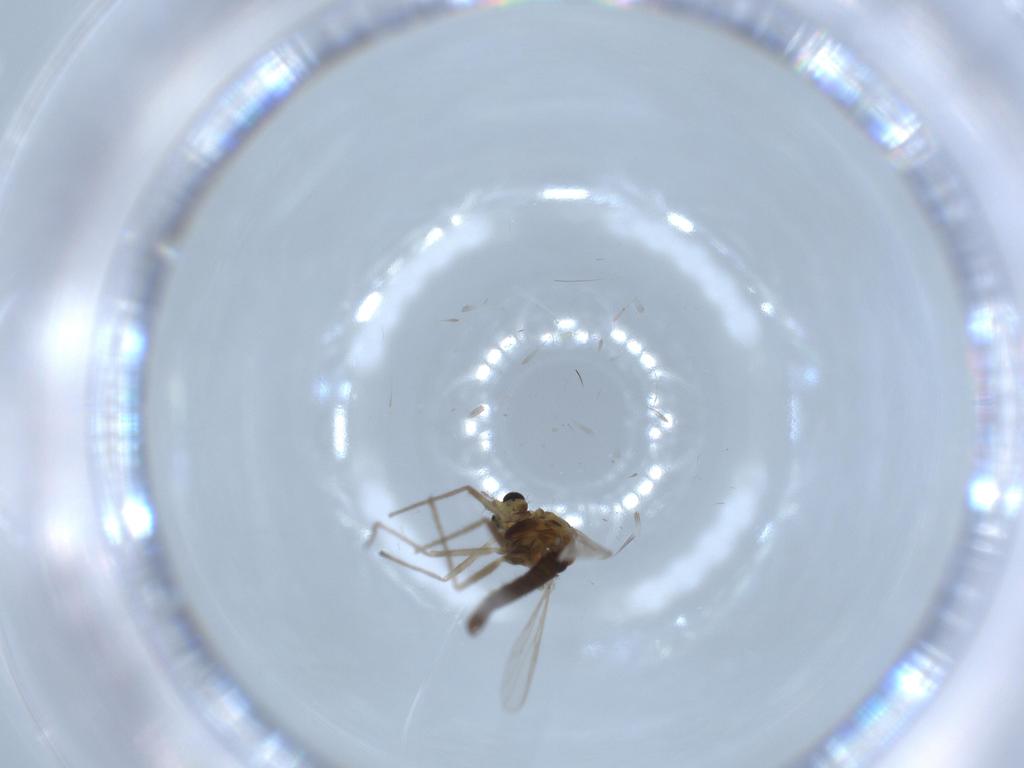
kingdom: Animalia
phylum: Arthropoda
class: Insecta
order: Diptera
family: Chironomidae
